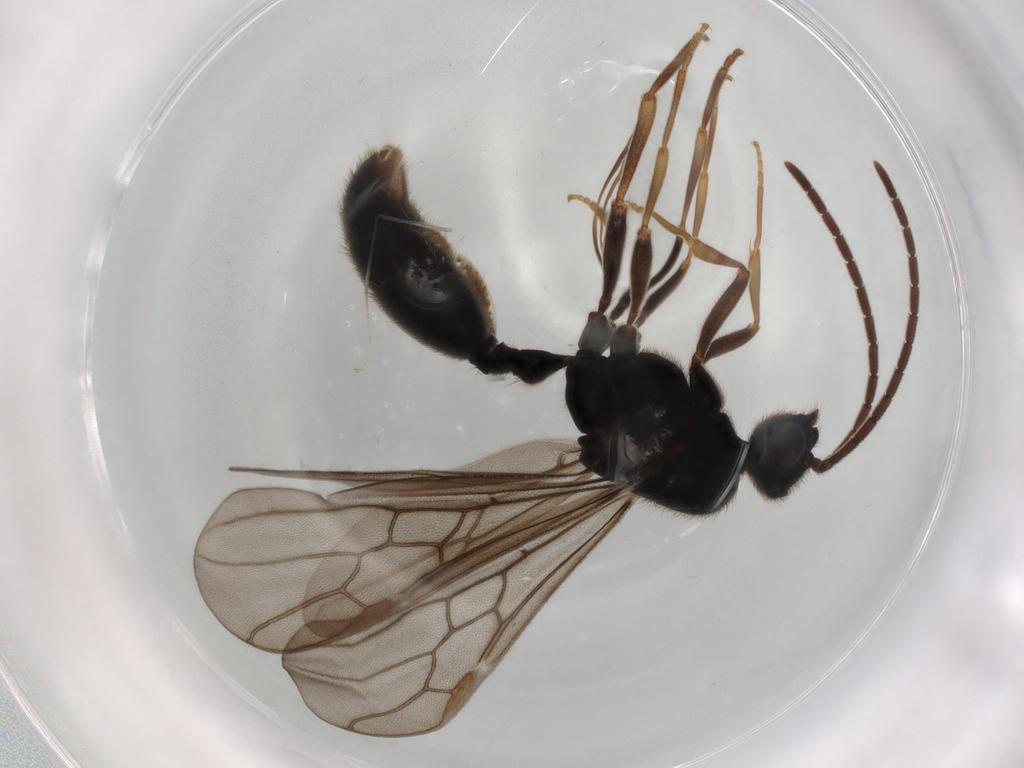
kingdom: Animalia
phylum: Arthropoda
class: Insecta
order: Hymenoptera
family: Formicidae
